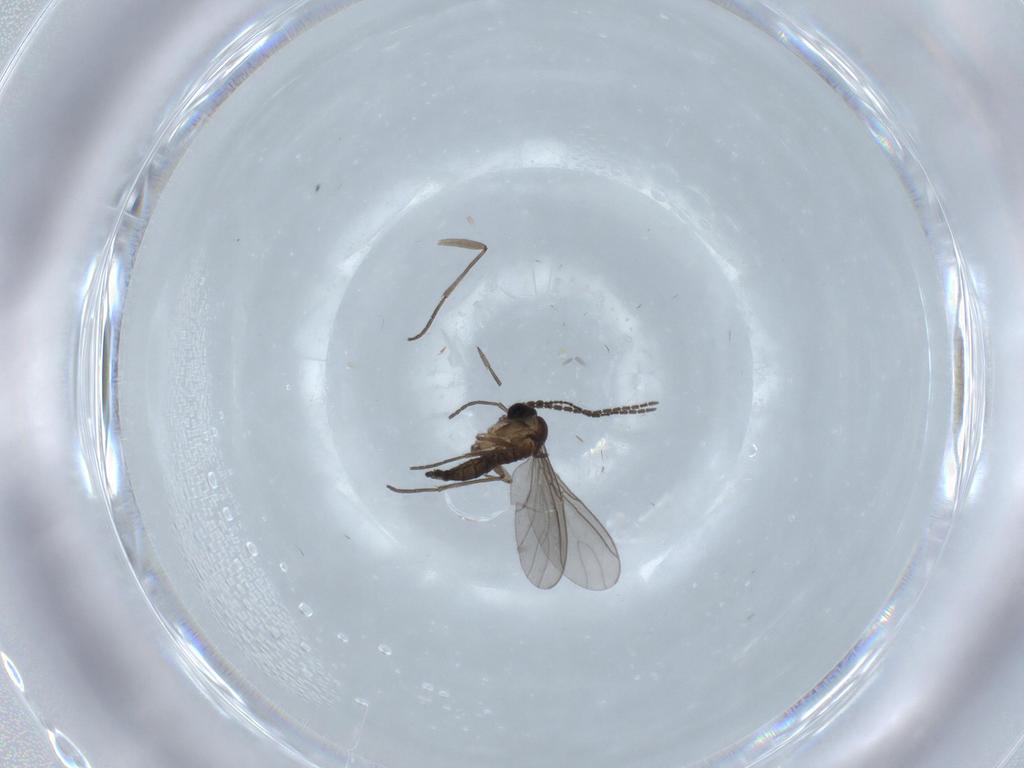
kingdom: Animalia
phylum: Arthropoda
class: Insecta
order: Diptera
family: Sciaridae
